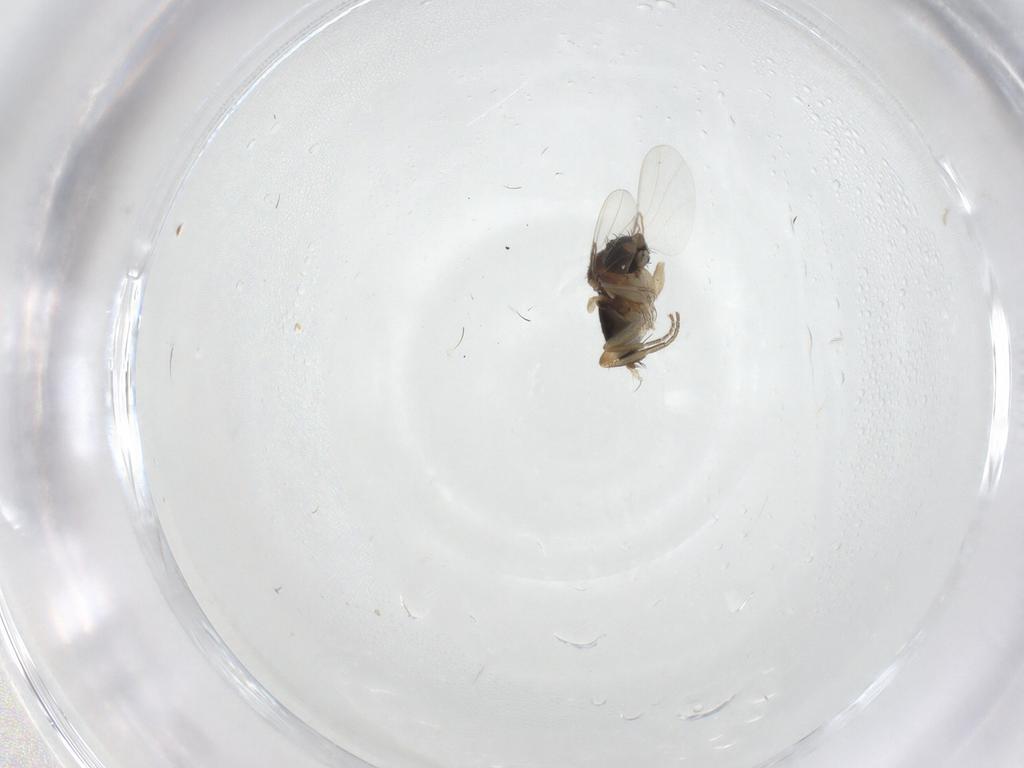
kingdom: Animalia
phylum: Arthropoda
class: Insecta
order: Diptera
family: Phoridae
